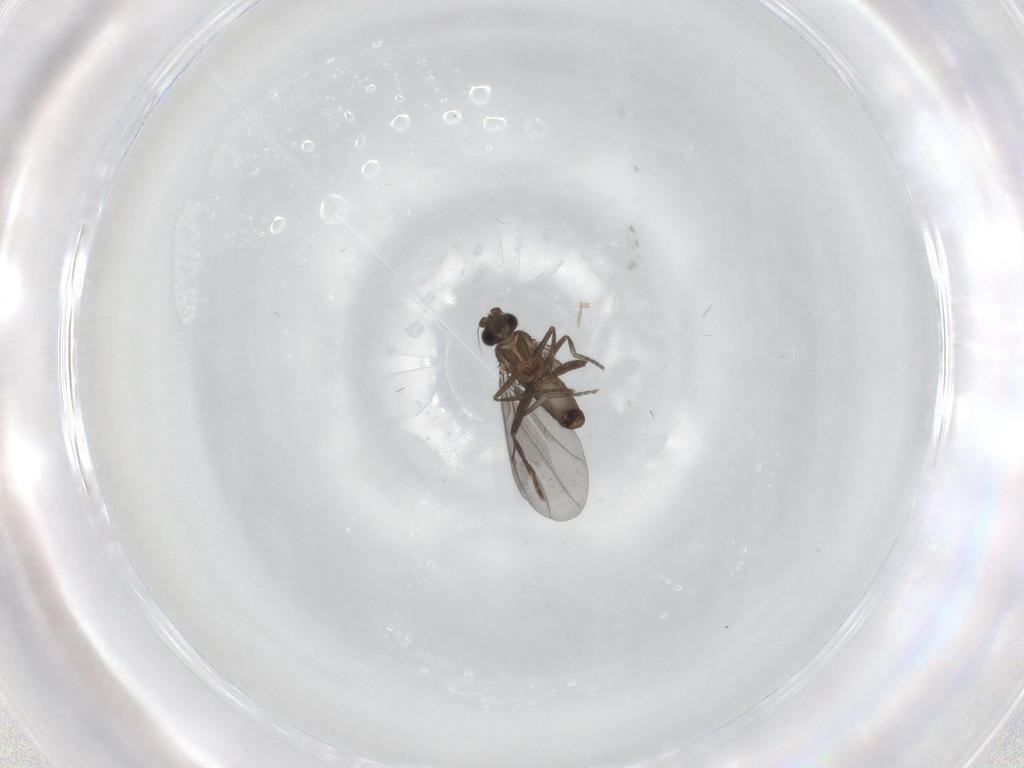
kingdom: Animalia
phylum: Arthropoda
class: Insecta
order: Diptera
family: Phoridae
